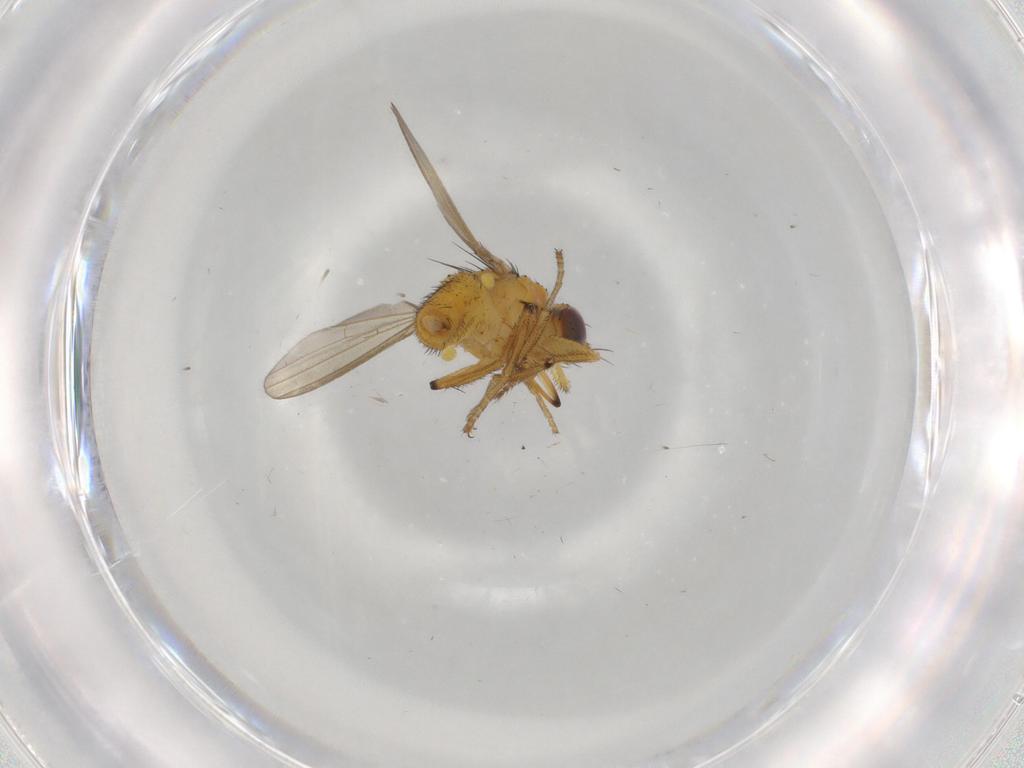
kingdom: Animalia
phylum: Arthropoda
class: Insecta
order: Diptera
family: Milichiidae
